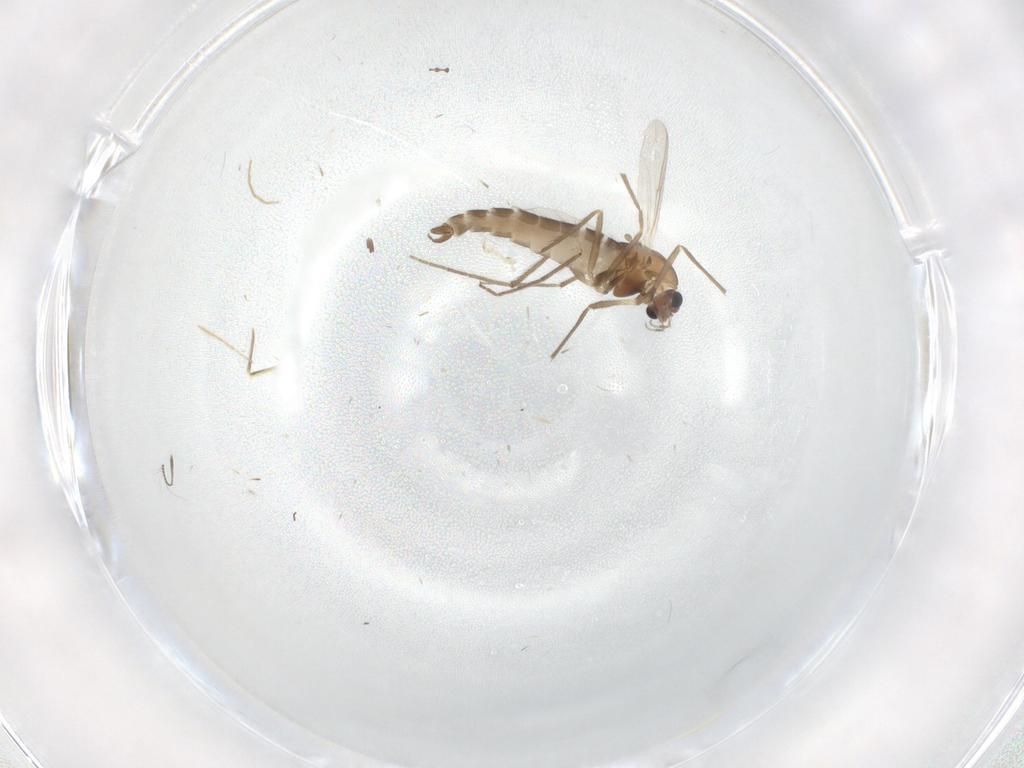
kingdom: Animalia
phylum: Arthropoda
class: Insecta
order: Diptera
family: Chironomidae
